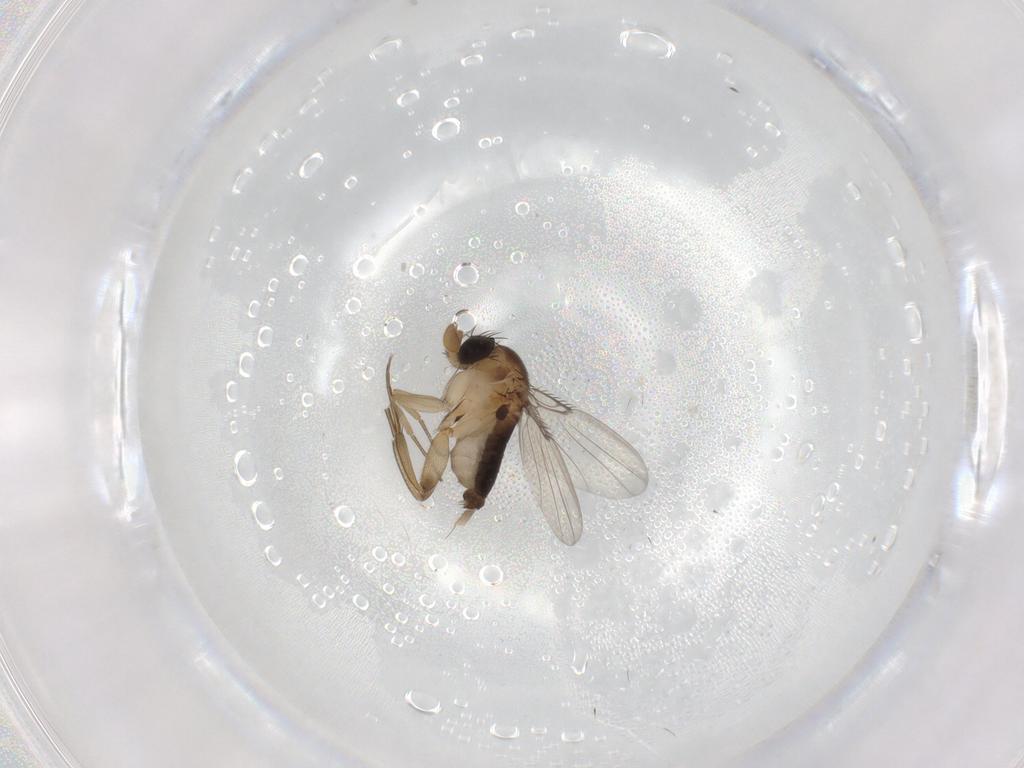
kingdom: Animalia
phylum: Arthropoda
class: Insecta
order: Diptera
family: Phoridae
